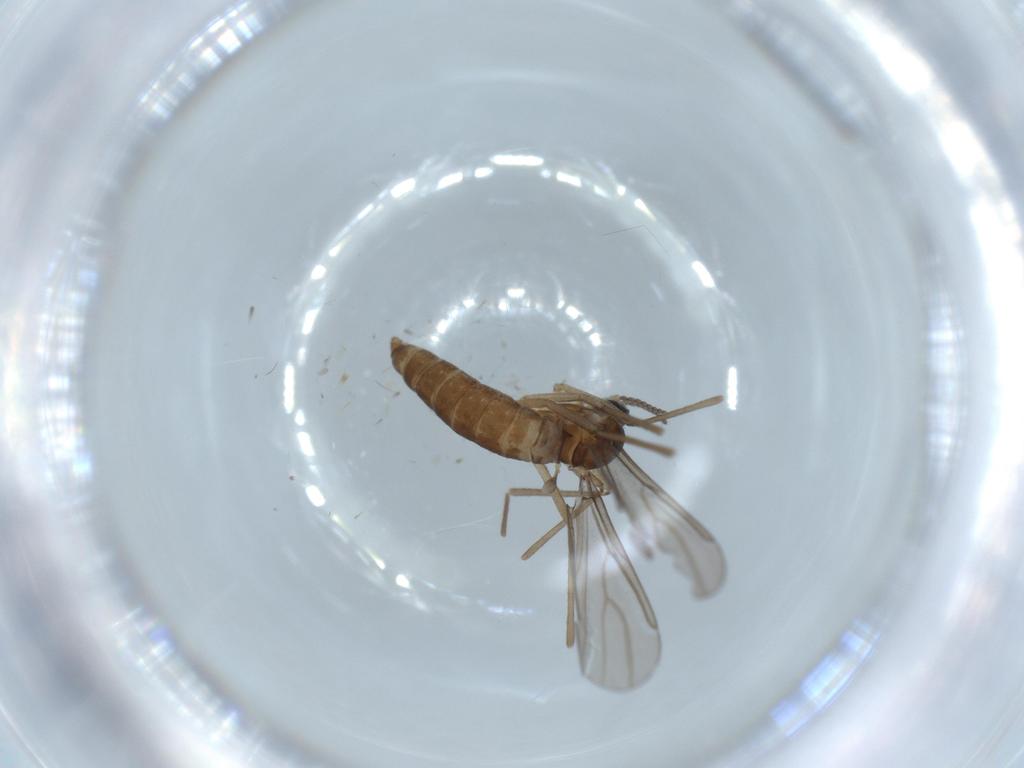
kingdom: Animalia
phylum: Arthropoda
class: Insecta
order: Diptera
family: Cecidomyiidae
